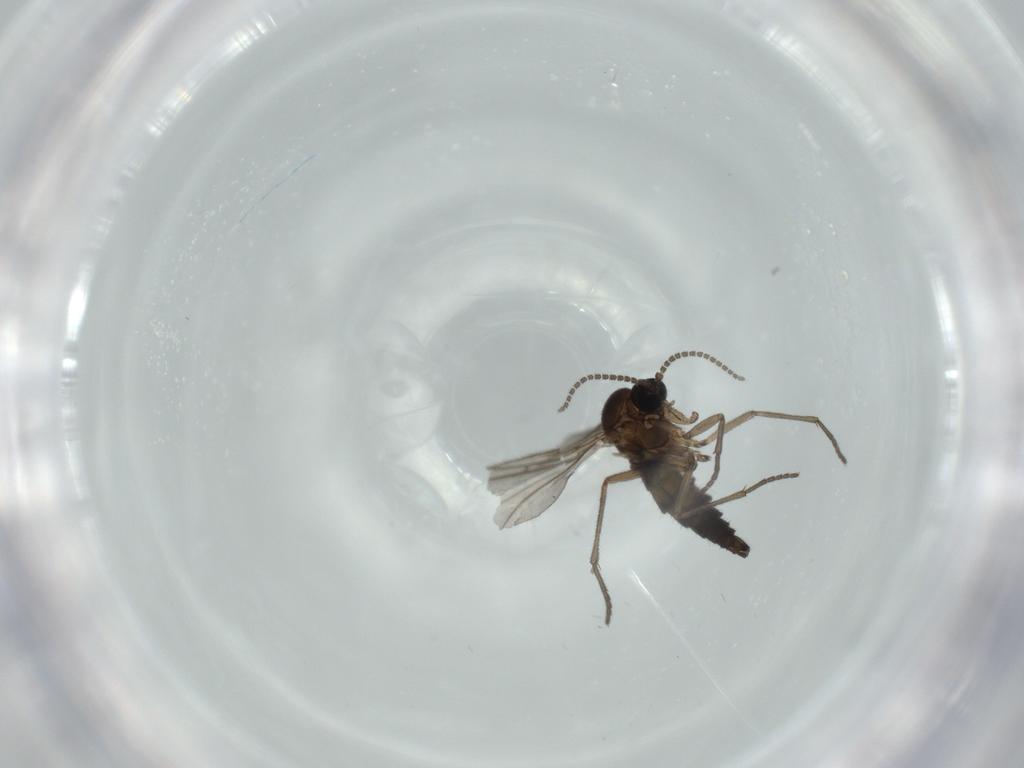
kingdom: Animalia
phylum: Arthropoda
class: Insecta
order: Diptera
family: Sciaridae
